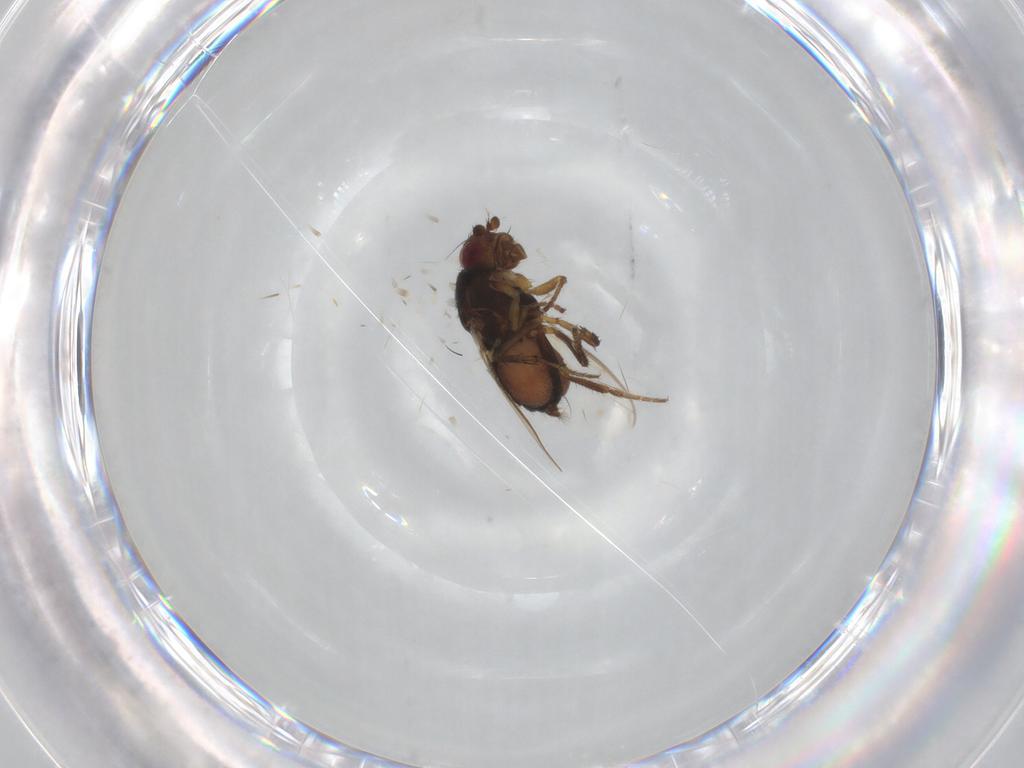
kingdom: Animalia
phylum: Arthropoda
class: Insecta
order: Diptera
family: Sphaeroceridae
